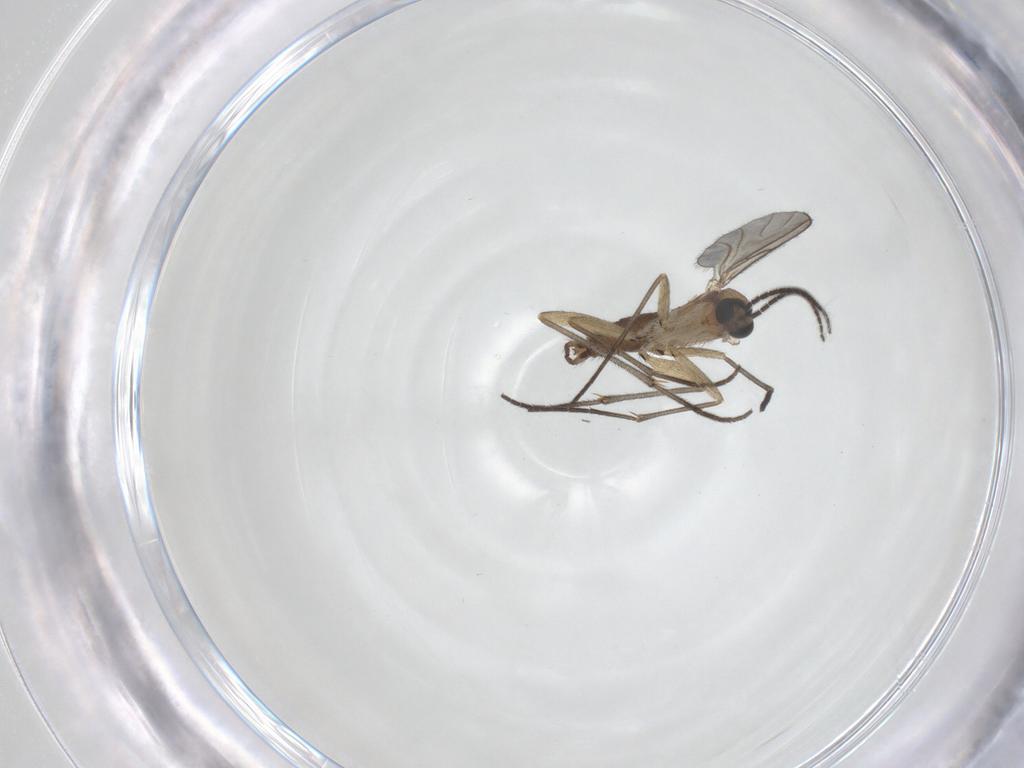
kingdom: Animalia
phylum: Arthropoda
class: Insecta
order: Diptera
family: Sciaridae
